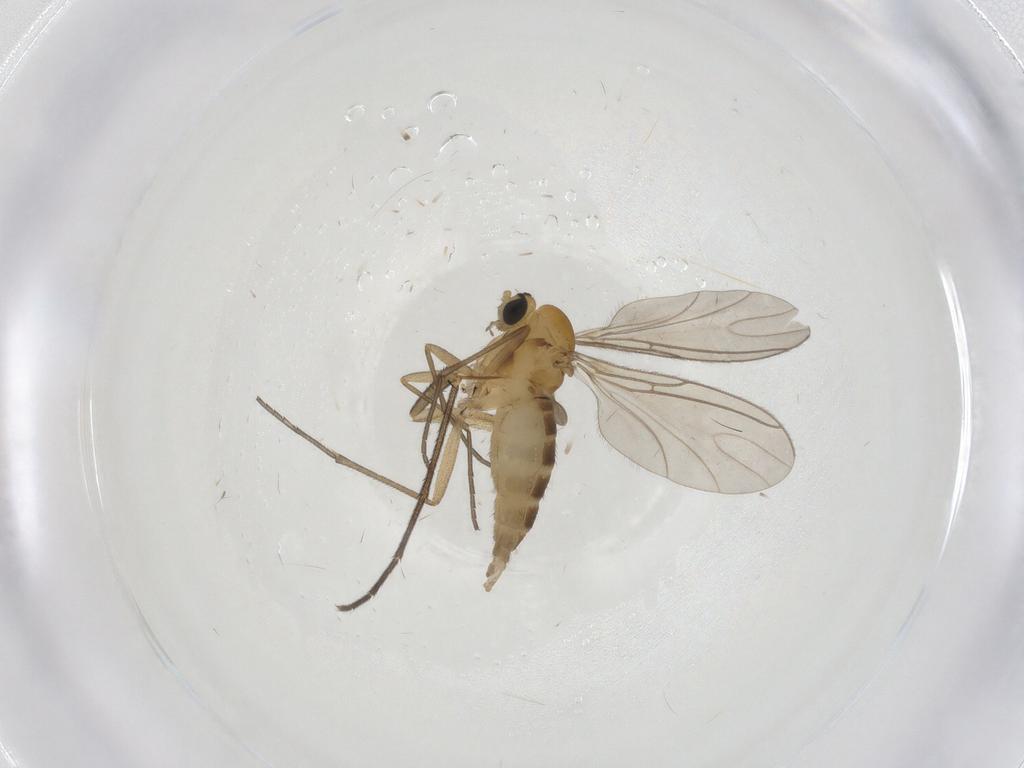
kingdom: Animalia
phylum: Arthropoda
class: Insecta
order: Diptera
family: Sciaridae
